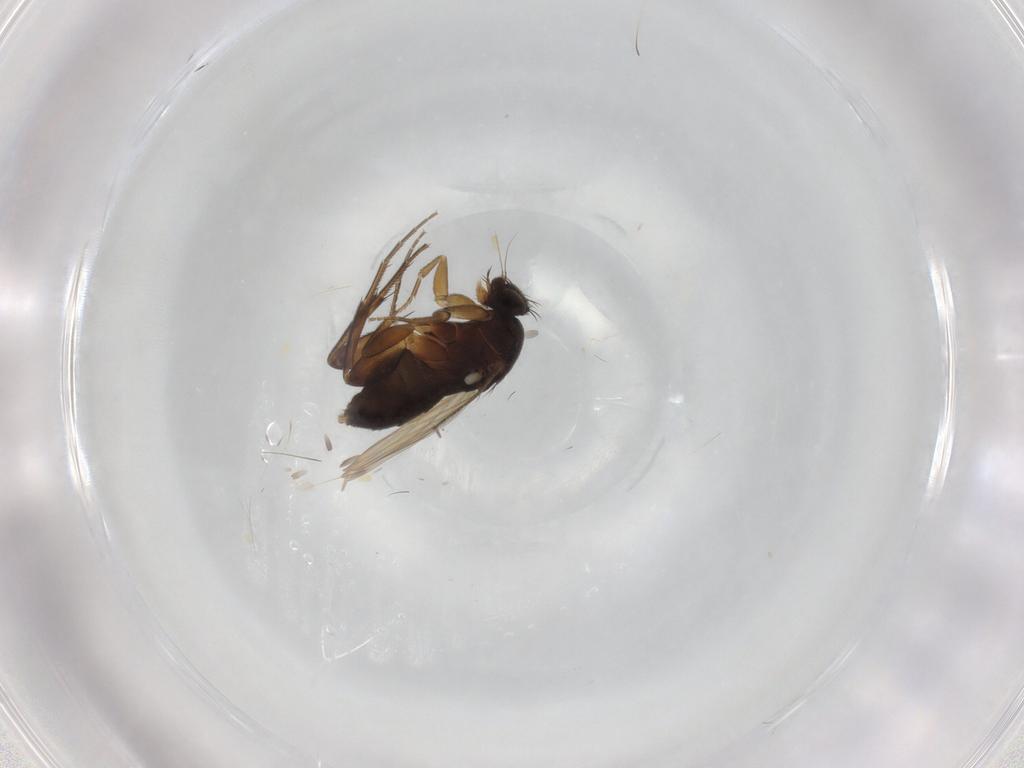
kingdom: Animalia
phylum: Arthropoda
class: Insecta
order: Diptera
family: Phoridae
